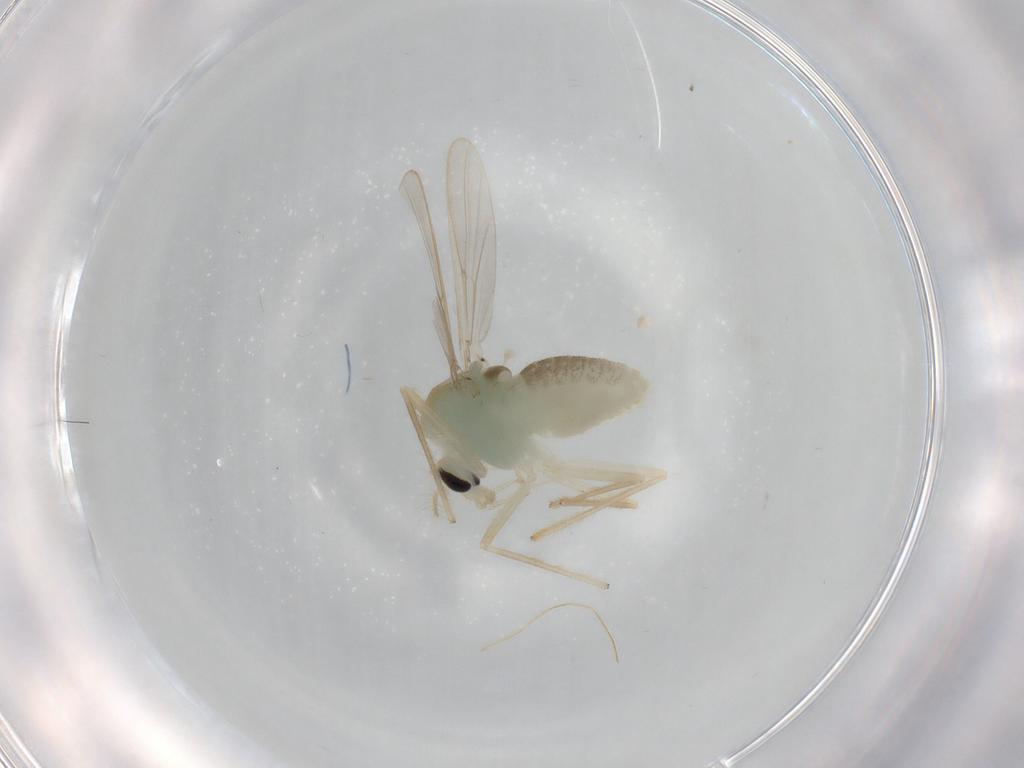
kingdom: Animalia
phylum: Arthropoda
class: Insecta
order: Diptera
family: Chironomidae
